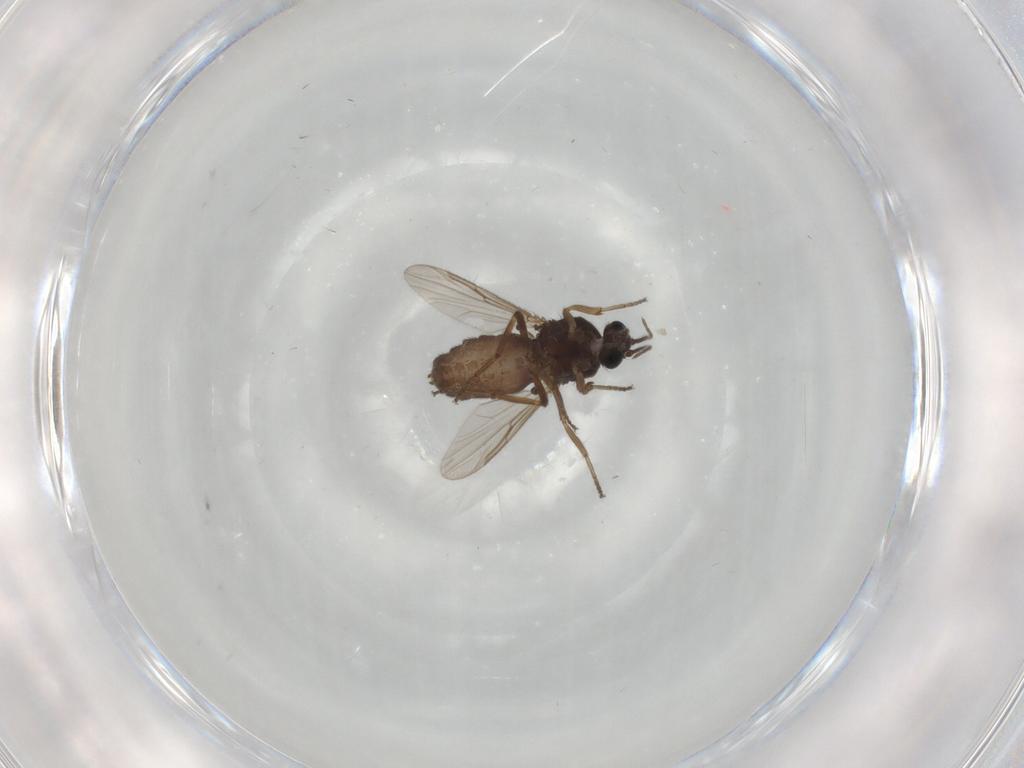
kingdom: Animalia
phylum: Arthropoda
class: Insecta
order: Diptera
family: Ceratopogonidae
